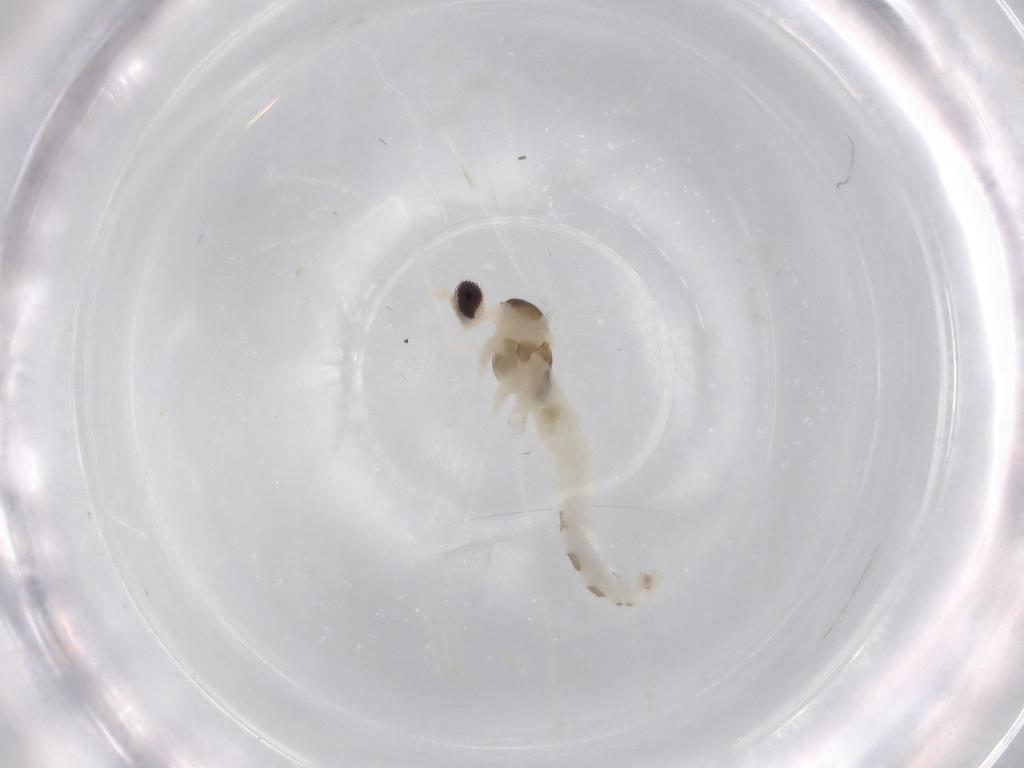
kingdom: Animalia
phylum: Arthropoda
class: Insecta
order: Diptera
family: Cecidomyiidae
